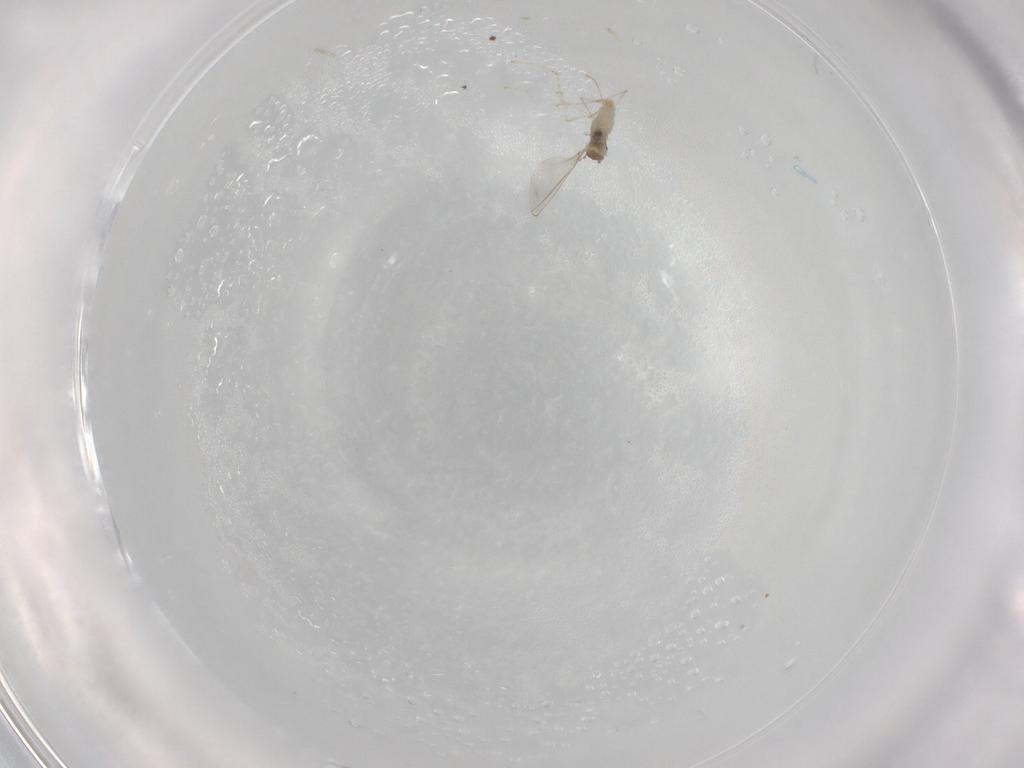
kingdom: Animalia
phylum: Arthropoda
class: Insecta
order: Diptera
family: Cecidomyiidae
